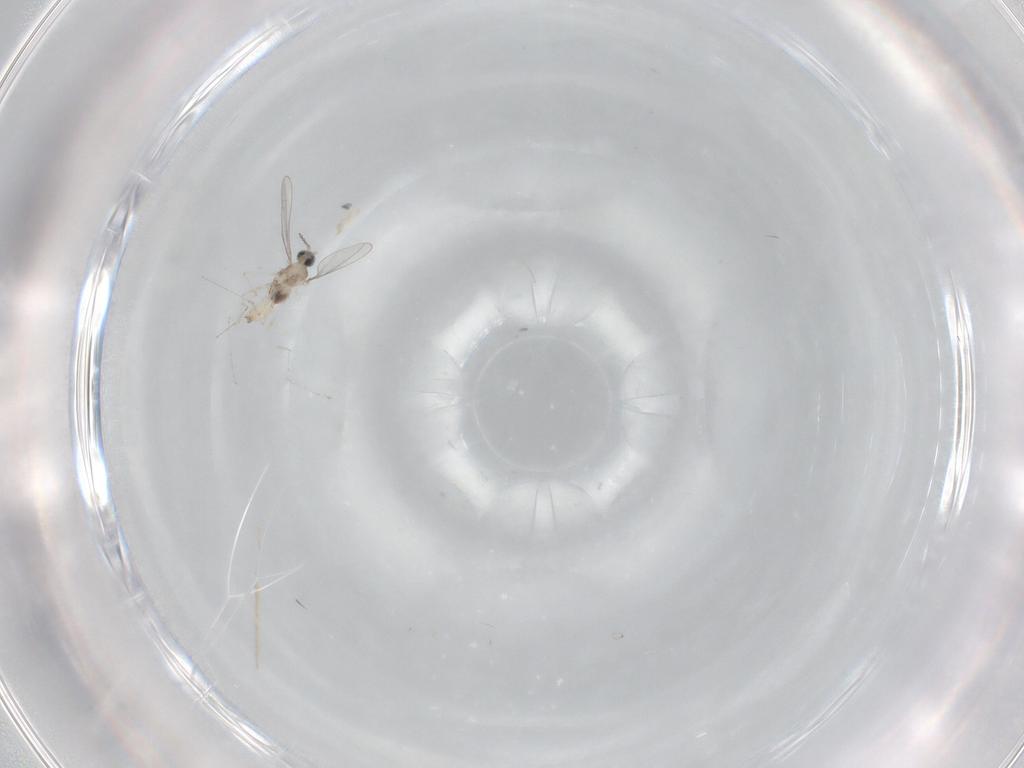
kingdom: Animalia
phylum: Arthropoda
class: Insecta
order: Diptera
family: Cecidomyiidae
